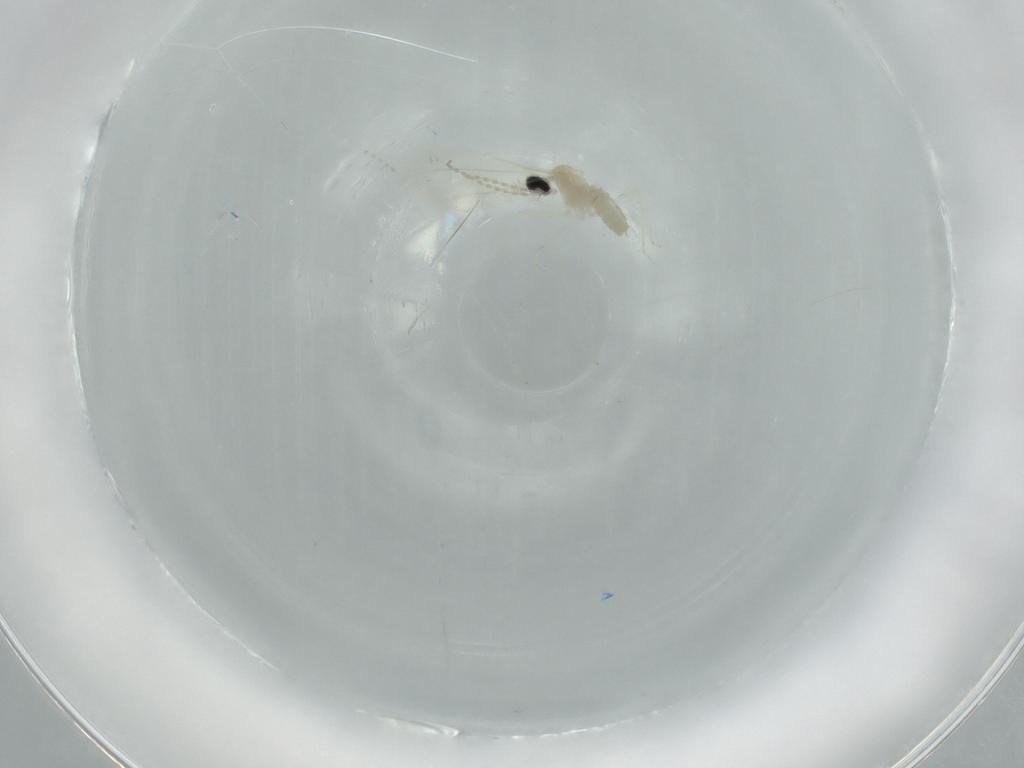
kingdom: Animalia
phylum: Arthropoda
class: Insecta
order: Diptera
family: Cecidomyiidae
